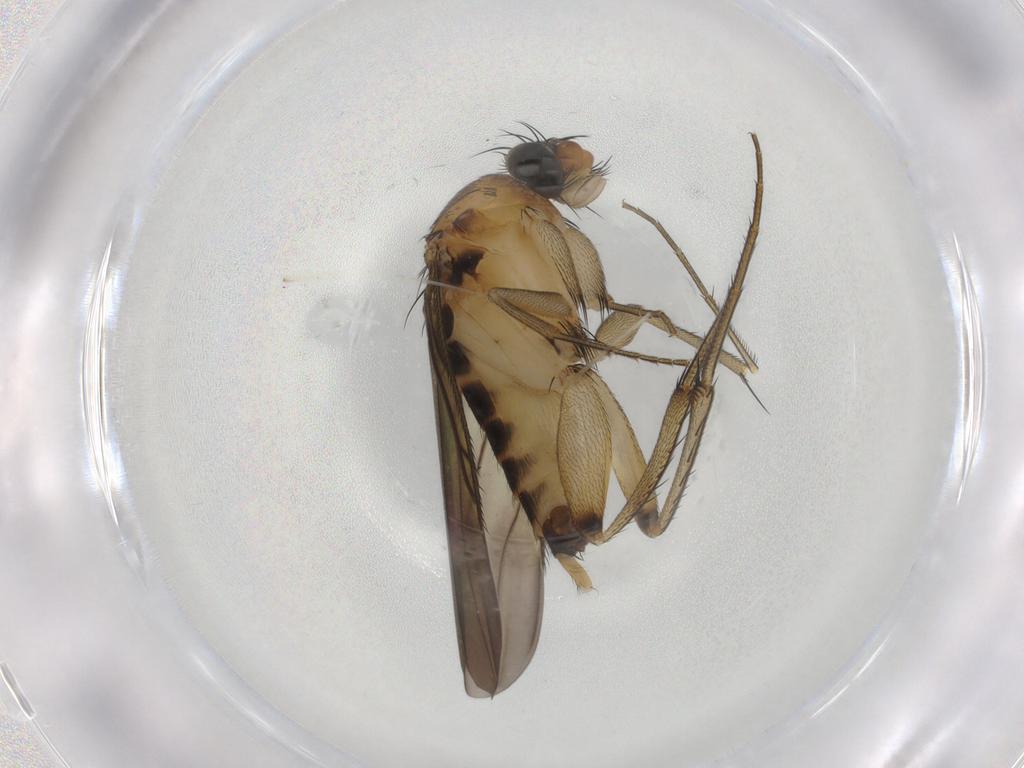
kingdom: Animalia
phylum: Arthropoda
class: Insecta
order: Diptera
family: Phoridae
